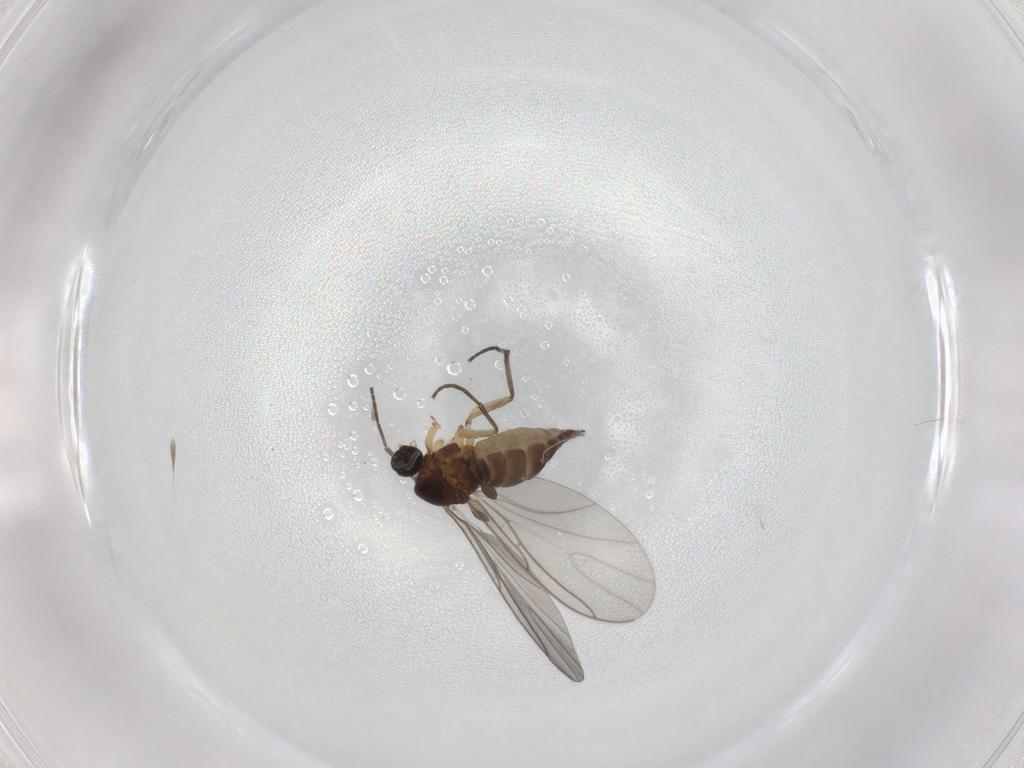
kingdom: Animalia
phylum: Arthropoda
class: Insecta
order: Diptera
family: Sciaridae
